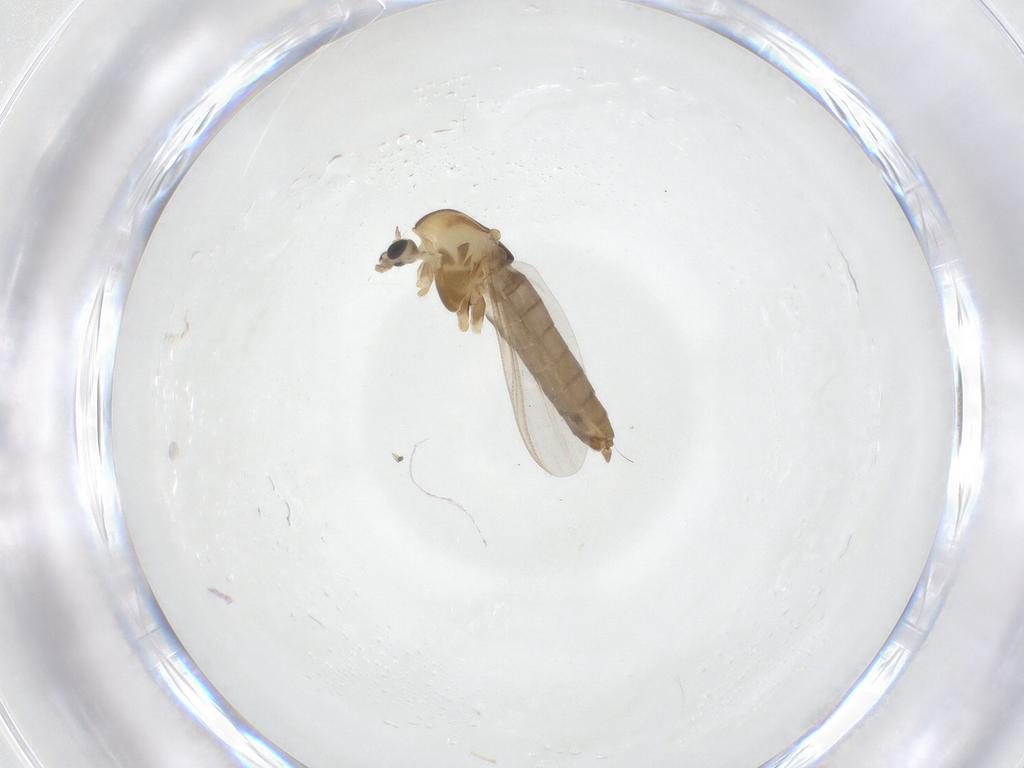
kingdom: Animalia
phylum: Arthropoda
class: Insecta
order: Diptera
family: Chironomidae
